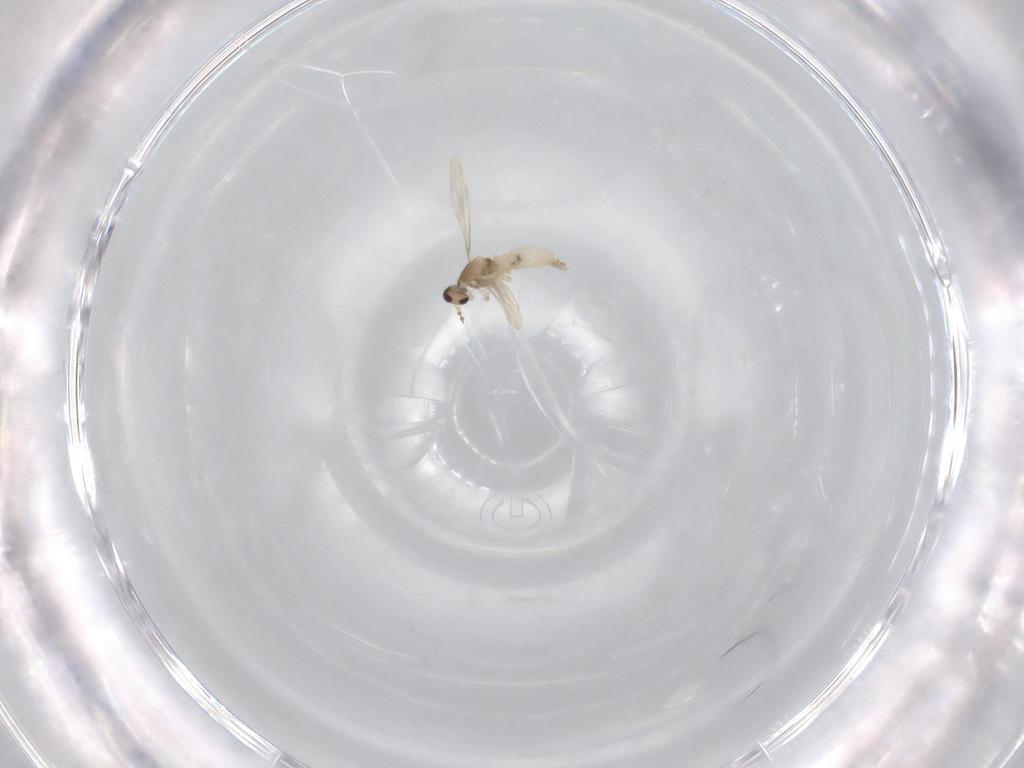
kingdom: Animalia
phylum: Arthropoda
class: Insecta
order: Diptera
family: Cecidomyiidae
